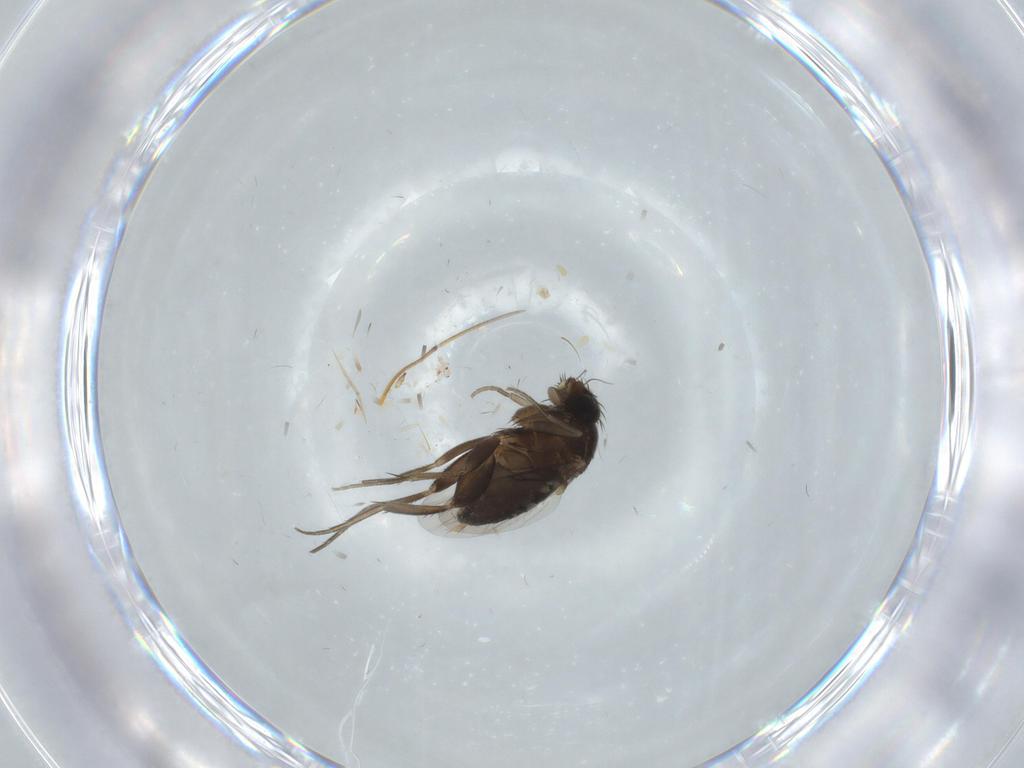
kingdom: Animalia
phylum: Arthropoda
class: Insecta
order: Diptera
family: Phoridae
